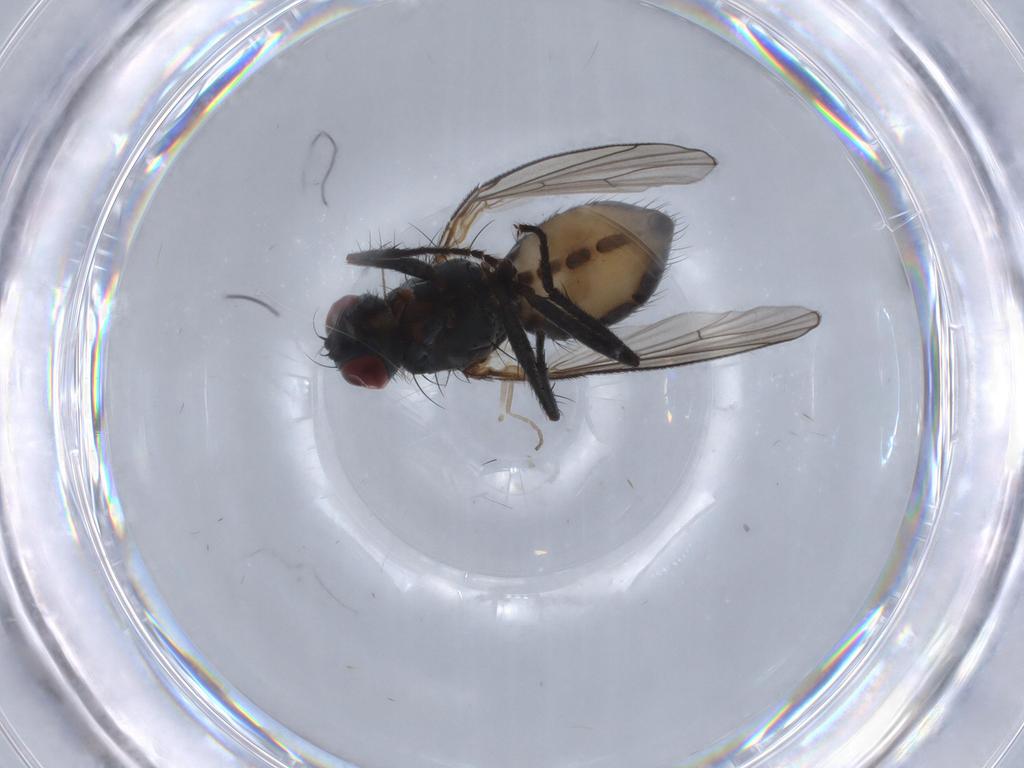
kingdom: Animalia
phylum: Arthropoda
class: Insecta
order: Diptera
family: Muscidae
